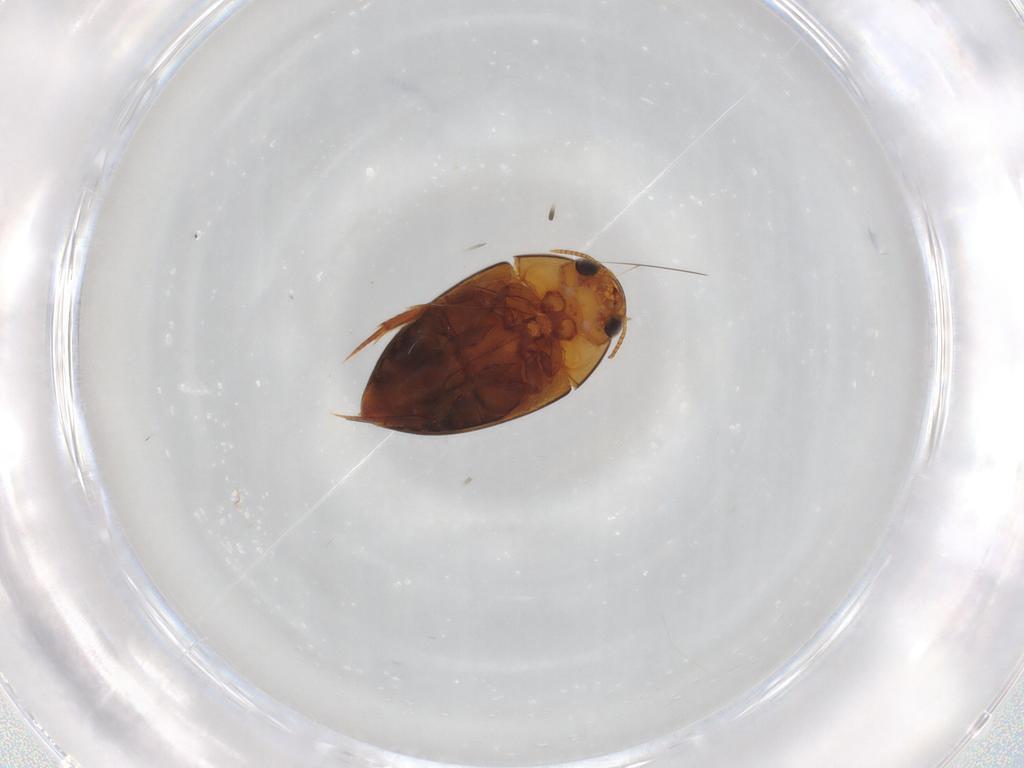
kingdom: Animalia
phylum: Arthropoda
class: Insecta
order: Coleoptera
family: Noteridae
